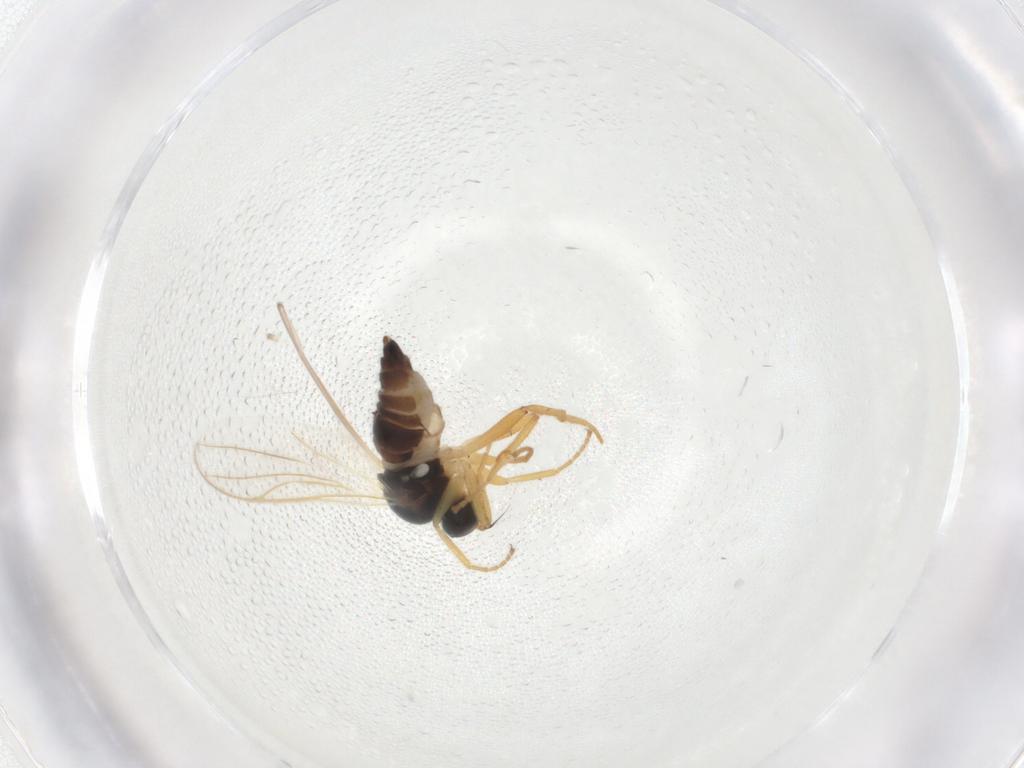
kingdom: Animalia
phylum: Arthropoda
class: Insecta
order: Diptera
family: Hybotidae
